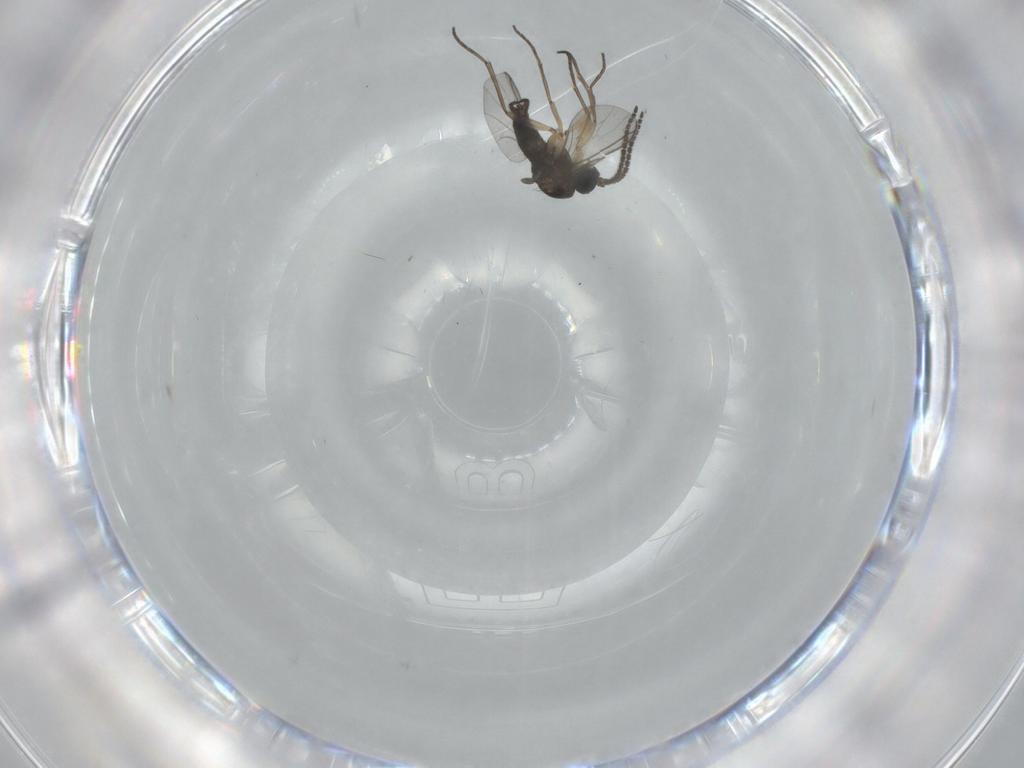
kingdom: Animalia
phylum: Arthropoda
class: Insecta
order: Diptera
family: Sciaridae
